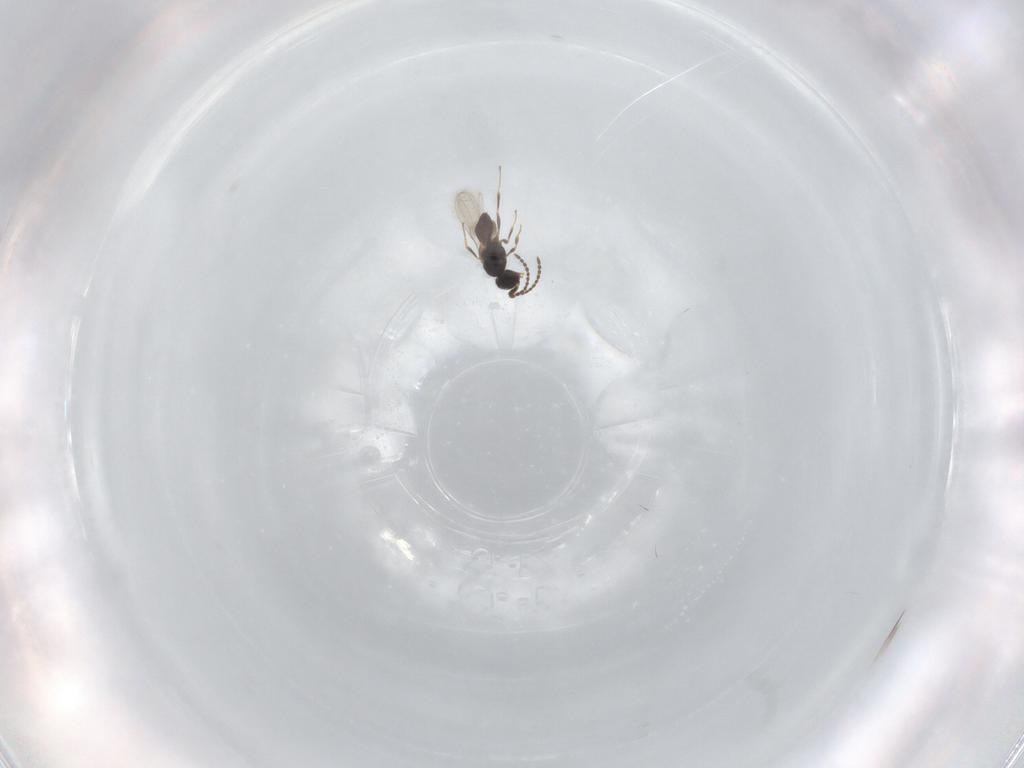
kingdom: Animalia
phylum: Arthropoda
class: Insecta
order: Hymenoptera
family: Scelionidae
